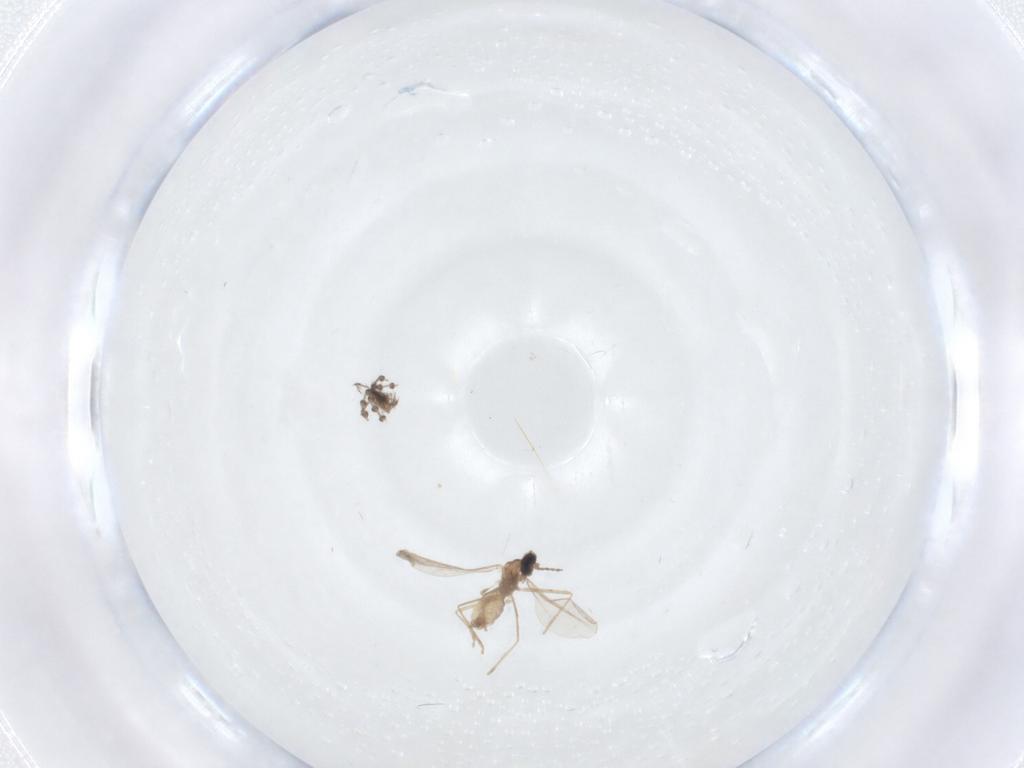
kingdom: Animalia
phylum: Arthropoda
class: Insecta
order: Diptera
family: Cecidomyiidae
